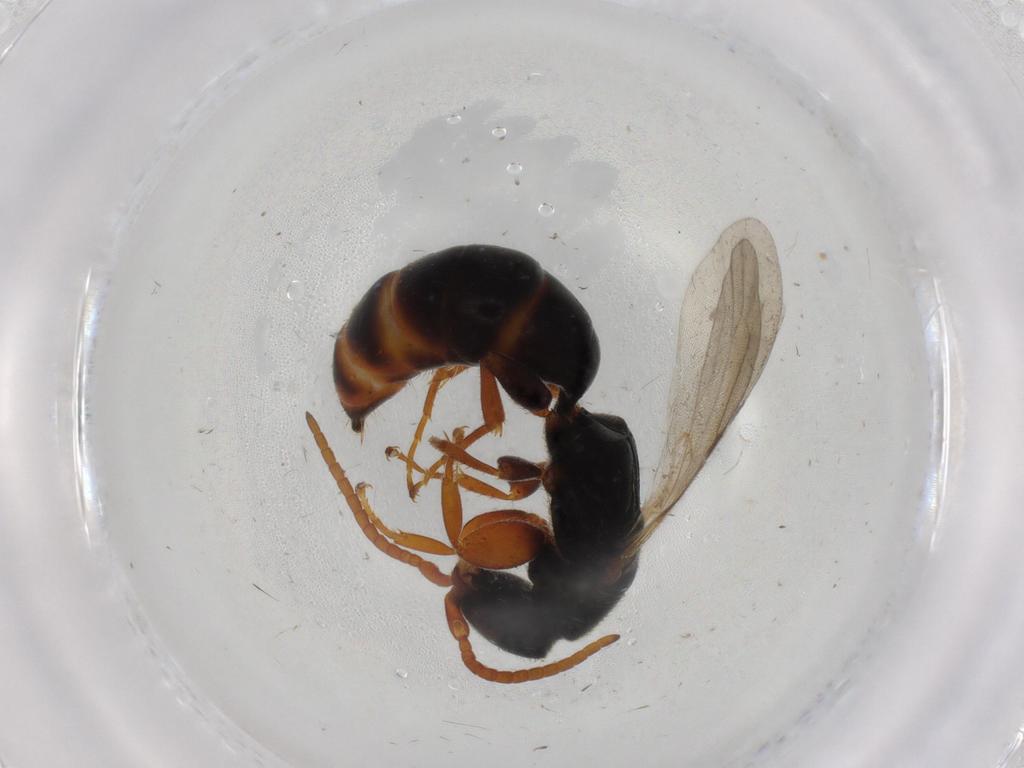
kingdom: Animalia
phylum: Arthropoda
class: Insecta
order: Hymenoptera
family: Bethylidae
